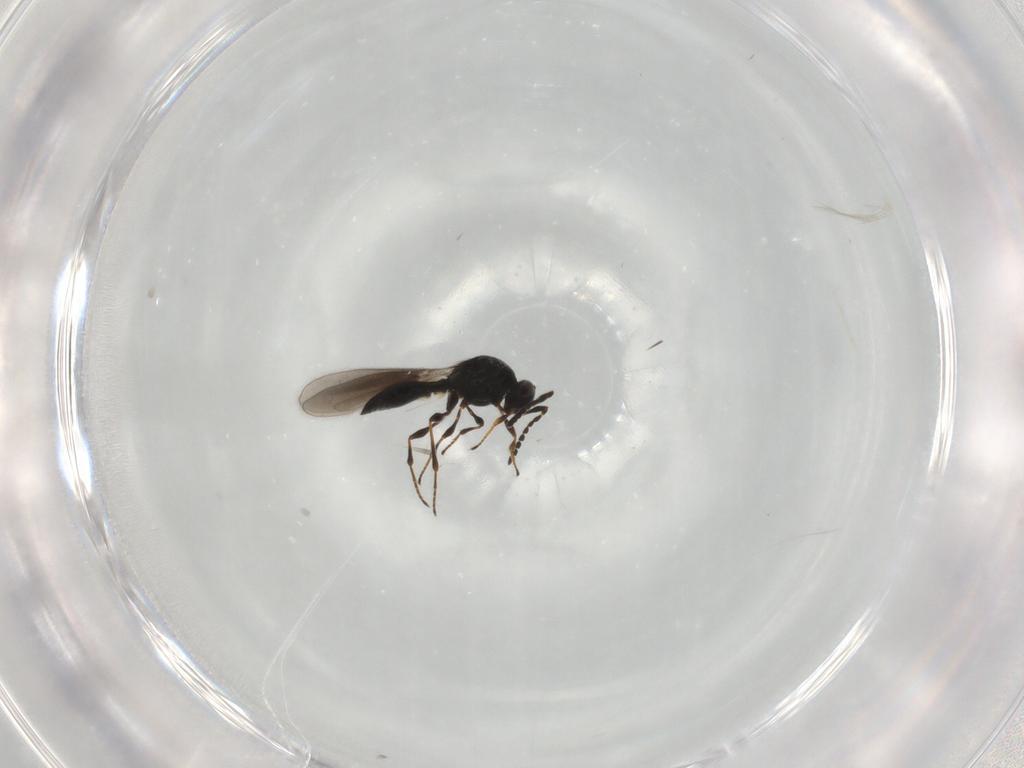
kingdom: Animalia
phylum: Arthropoda
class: Insecta
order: Hymenoptera
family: Platygastridae
